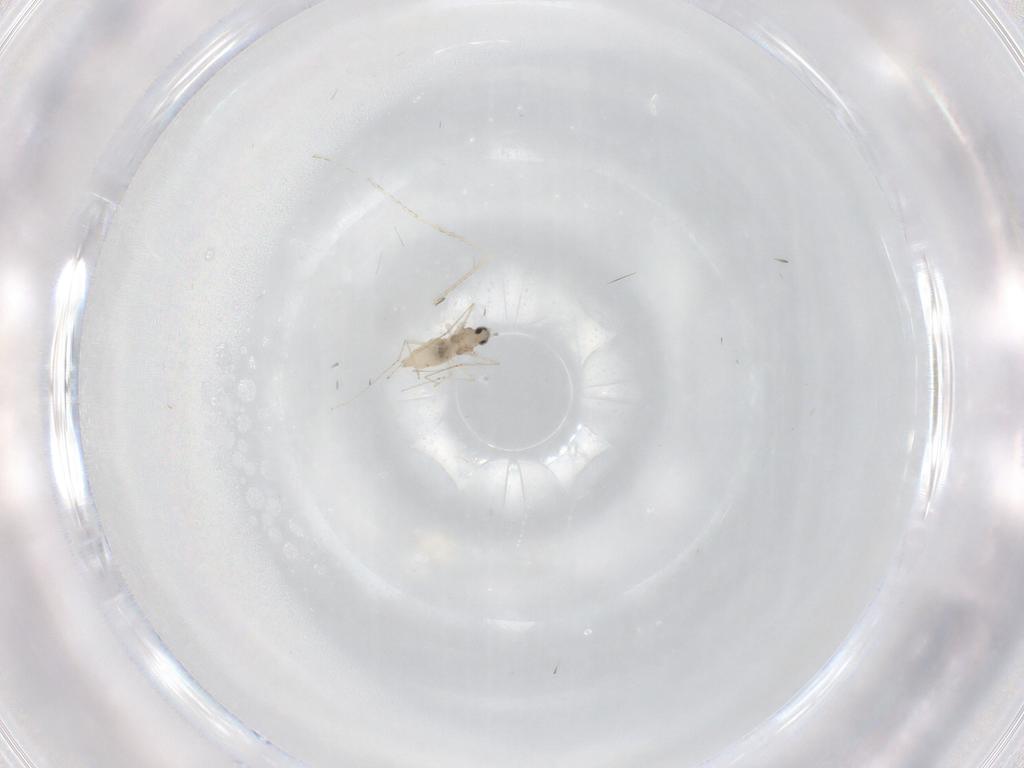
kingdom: Animalia
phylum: Arthropoda
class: Insecta
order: Diptera
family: Cecidomyiidae
